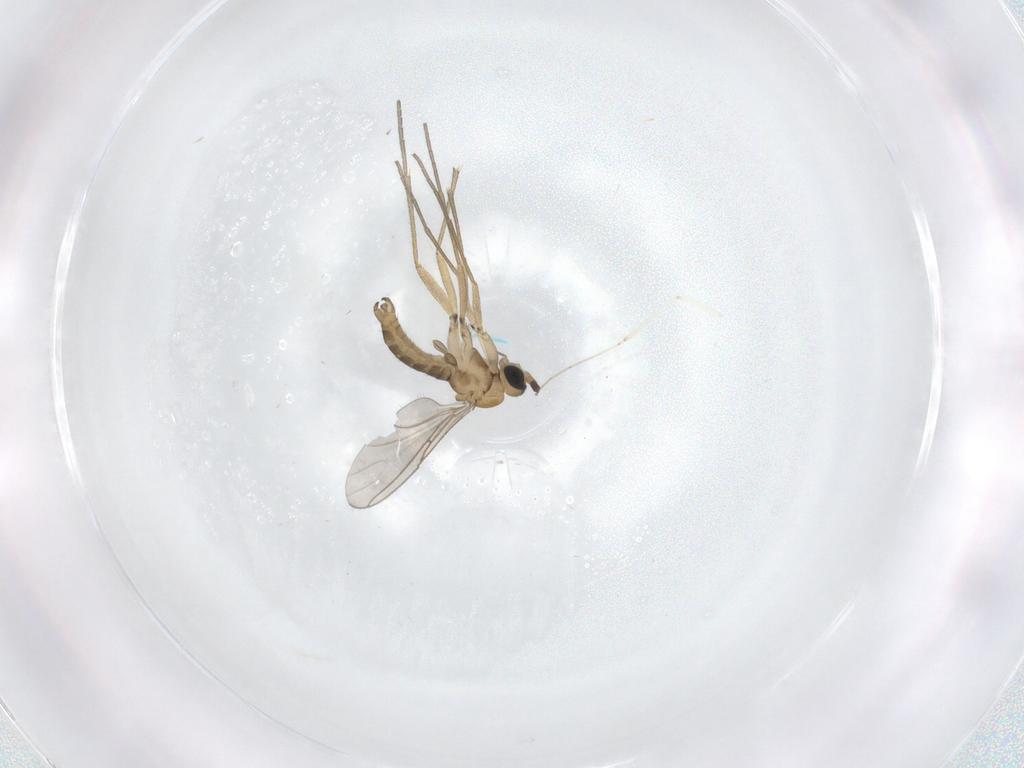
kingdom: Animalia
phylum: Arthropoda
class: Insecta
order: Diptera
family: Sciaridae
